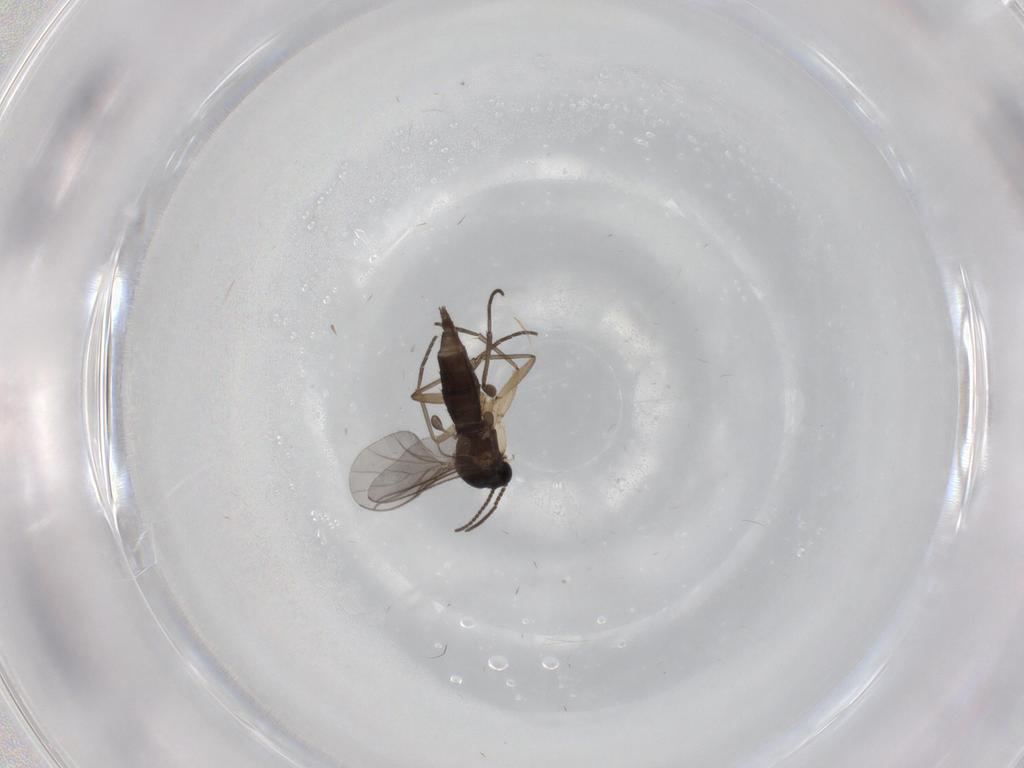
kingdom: Animalia
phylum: Arthropoda
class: Insecta
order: Diptera
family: Sciaridae
